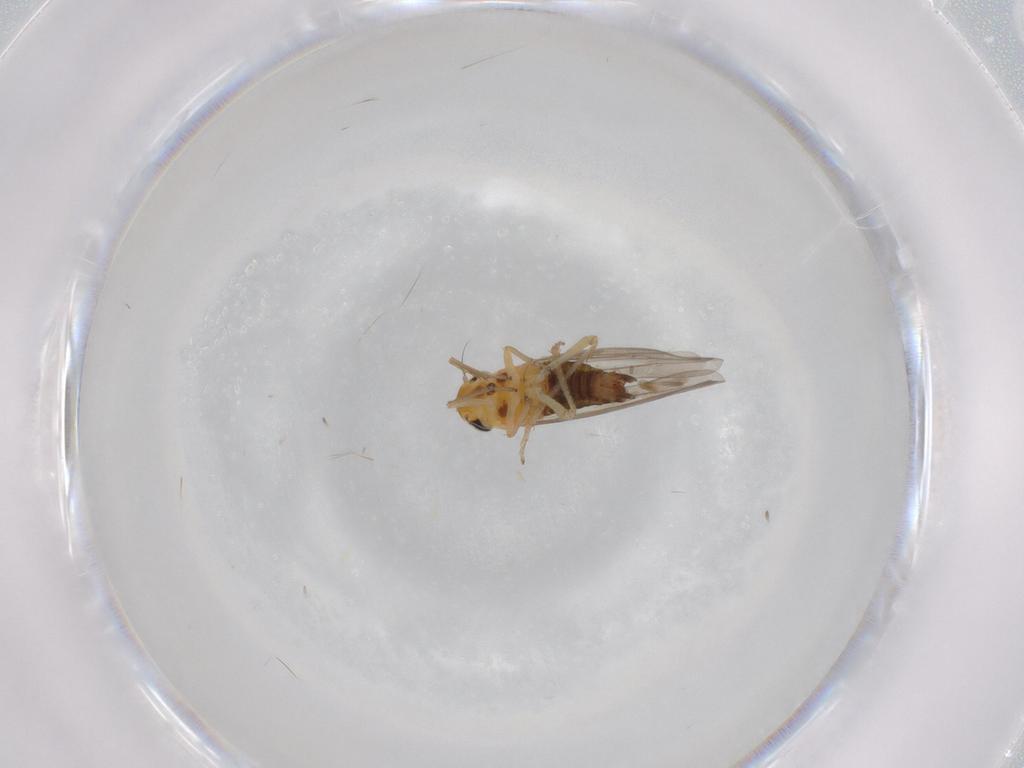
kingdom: Animalia
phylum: Arthropoda
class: Insecta
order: Hemiptera
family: Cicadellidae
